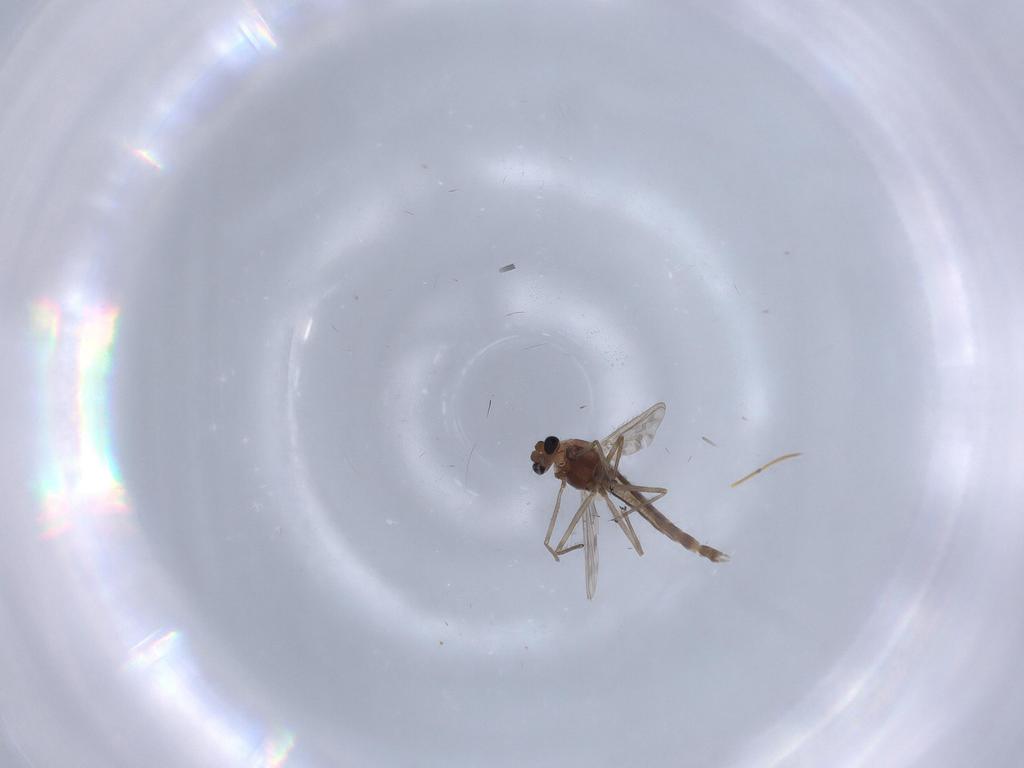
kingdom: Animalia
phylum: Arthropoda
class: Insecta
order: Diptera
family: Chironomidae
